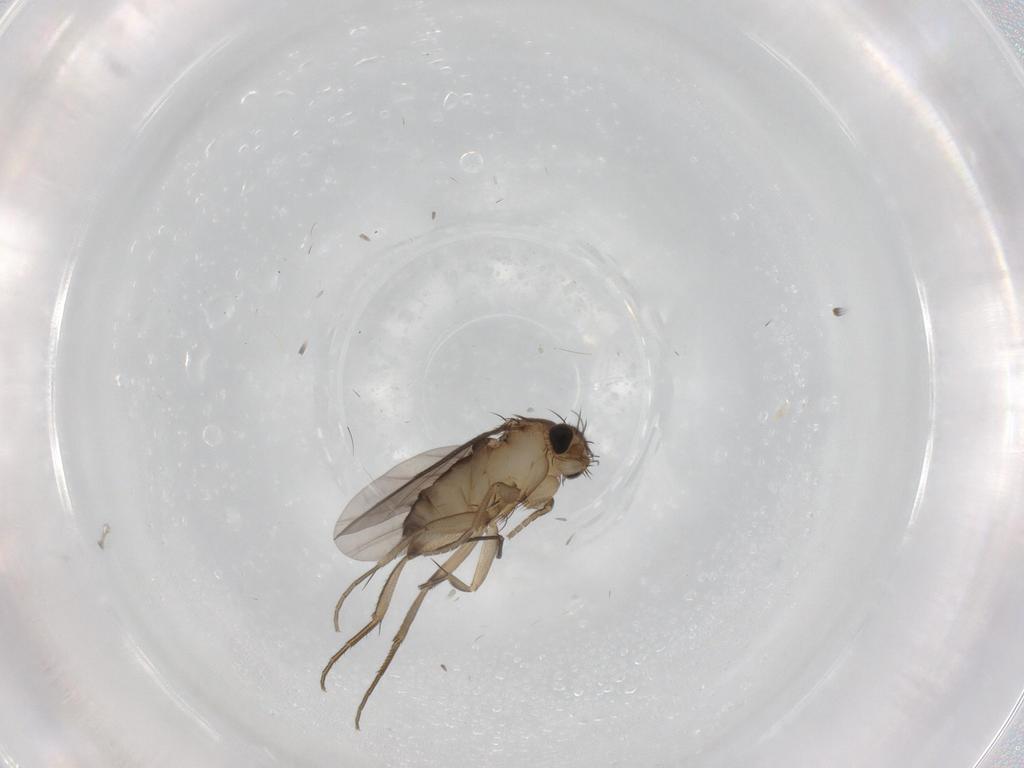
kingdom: Animalia
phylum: Arthropoda
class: Insecta
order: Diptera
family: Phoridae
